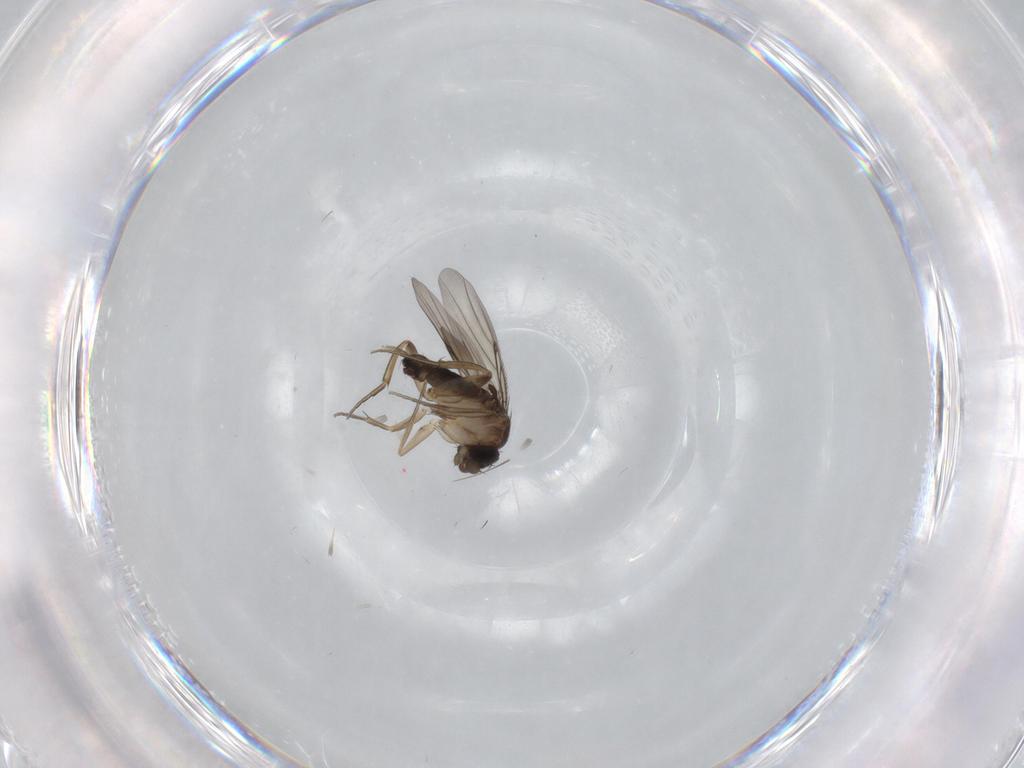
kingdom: Animalia
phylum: Arthropoda
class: Insecta
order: Diptera
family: Phoridae
